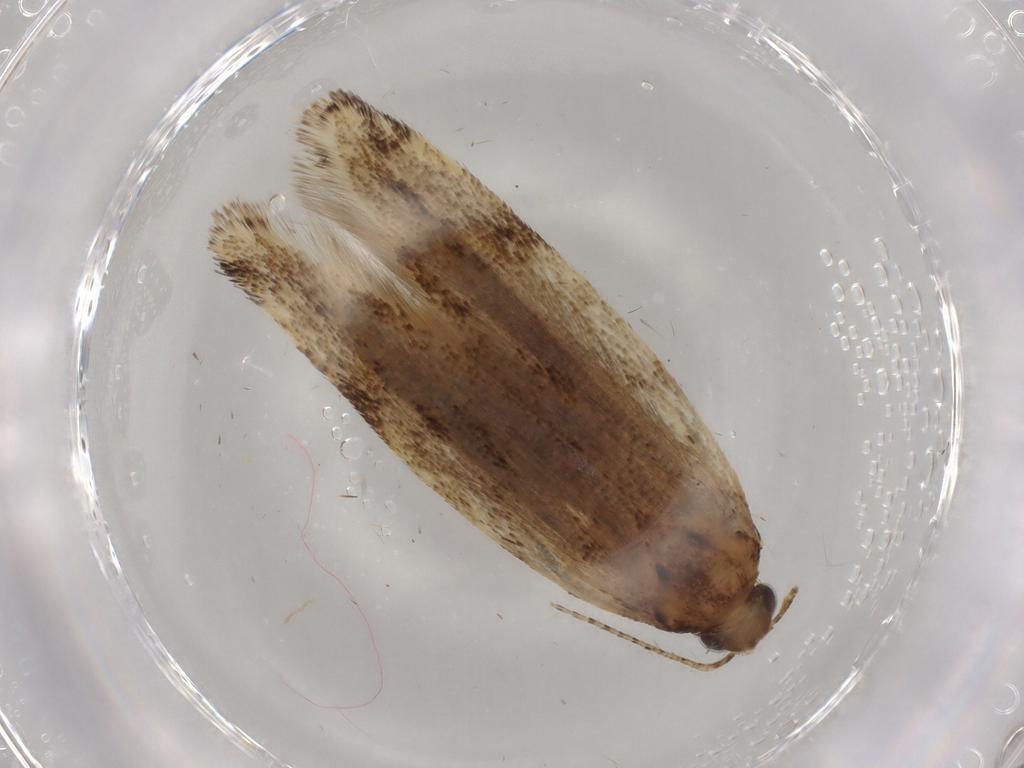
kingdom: Animalia
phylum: Arthropoda
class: Insecta
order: Lepidoptera
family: Gelechiidae
